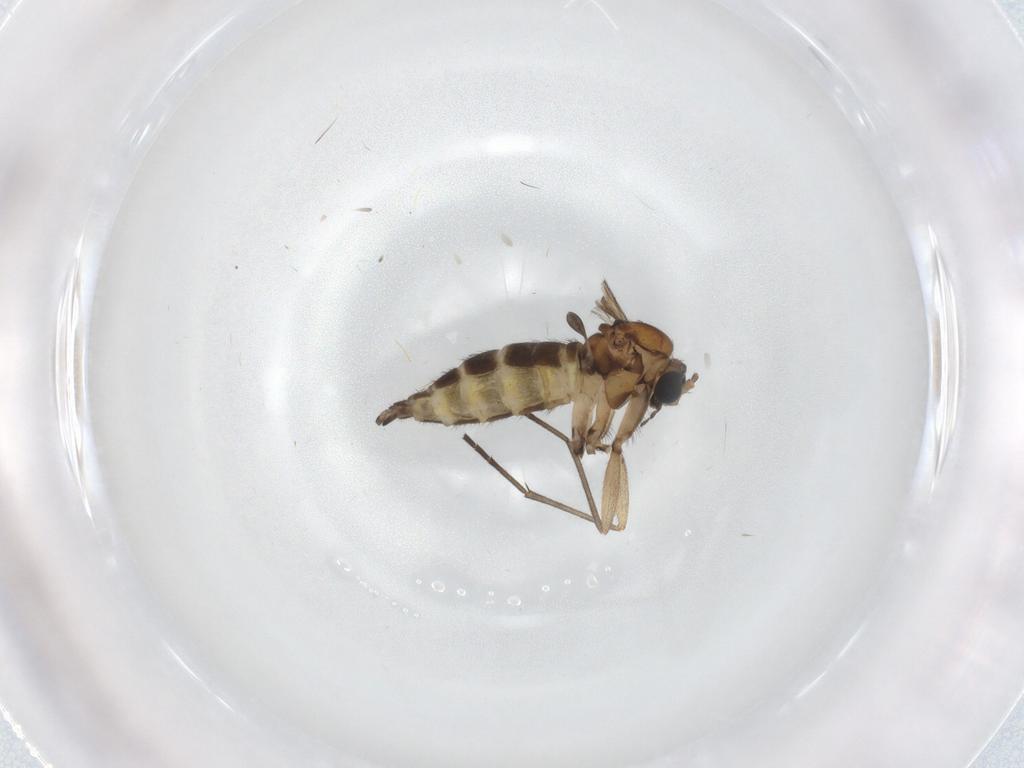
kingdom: Animalia
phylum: Arthropoda
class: Insecta
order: Diptera
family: Sciaridae
